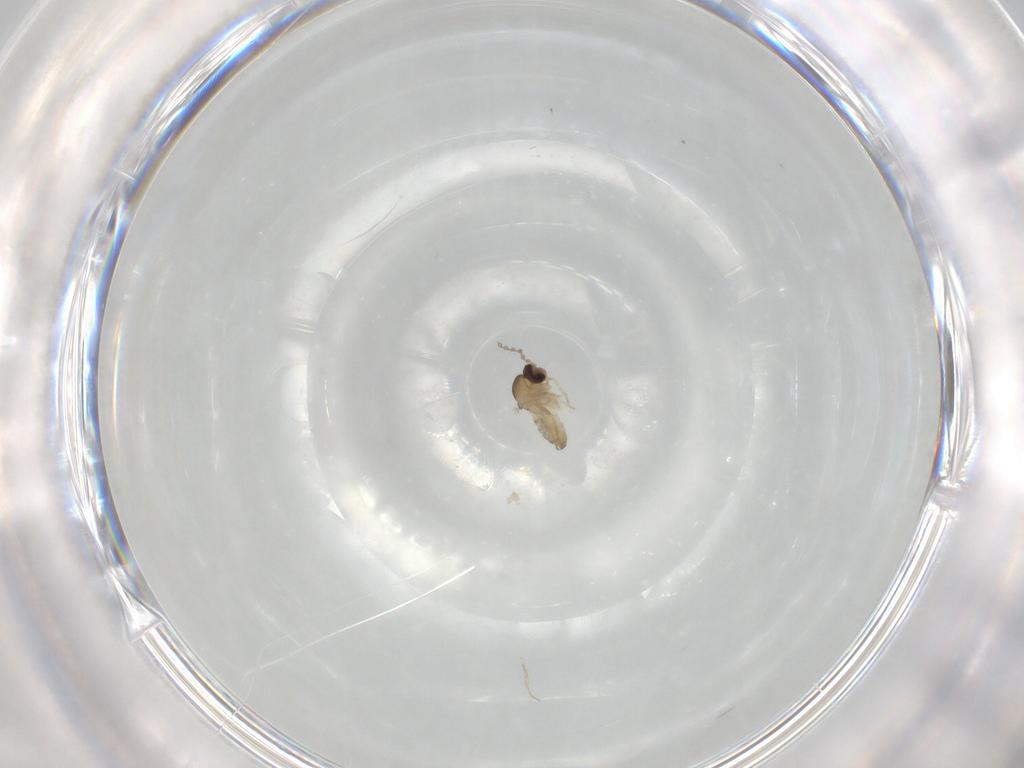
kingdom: Animalia
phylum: Arthropoda
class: Insecta
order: Diptera
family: Cecidomyiidae
